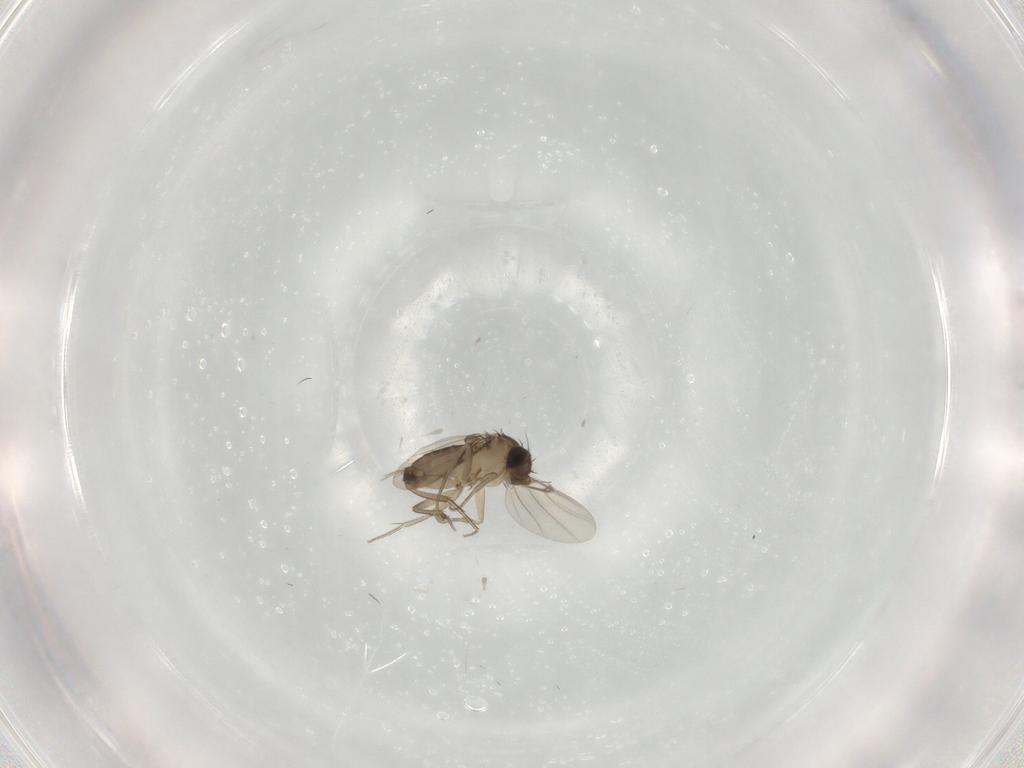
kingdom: Animalia
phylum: Arthropoda
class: Insecta
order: Diptera
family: Phoridae
